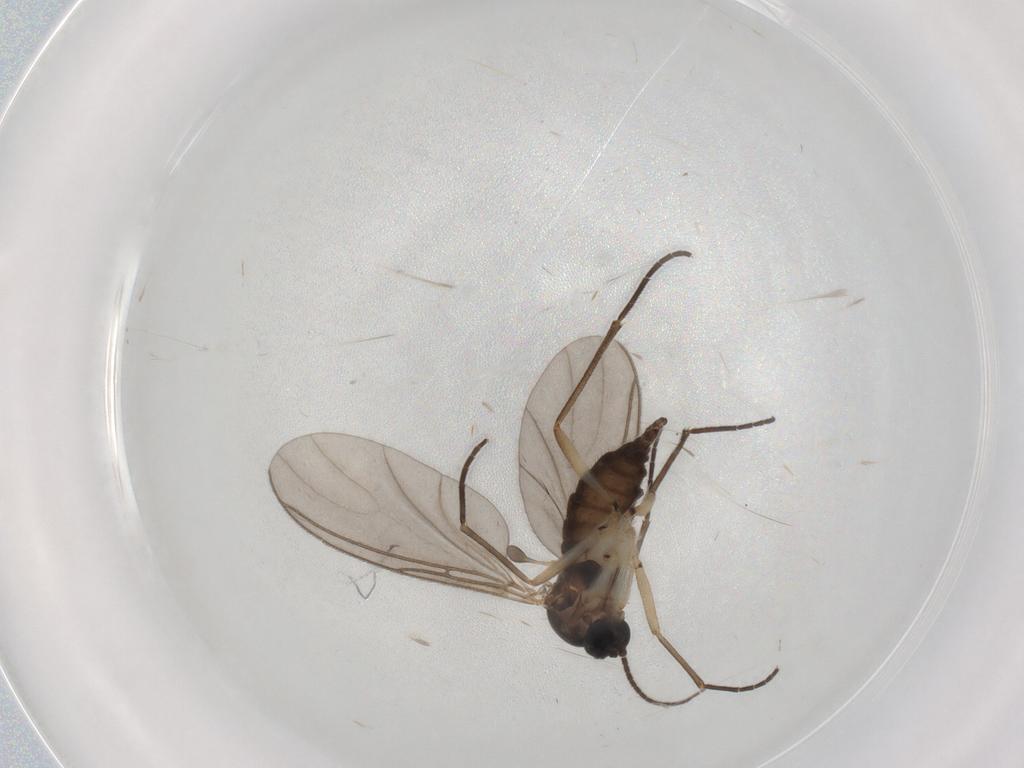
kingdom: Animalia
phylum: Arthropoda
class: Insecta
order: Diptera
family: Sciaridae
